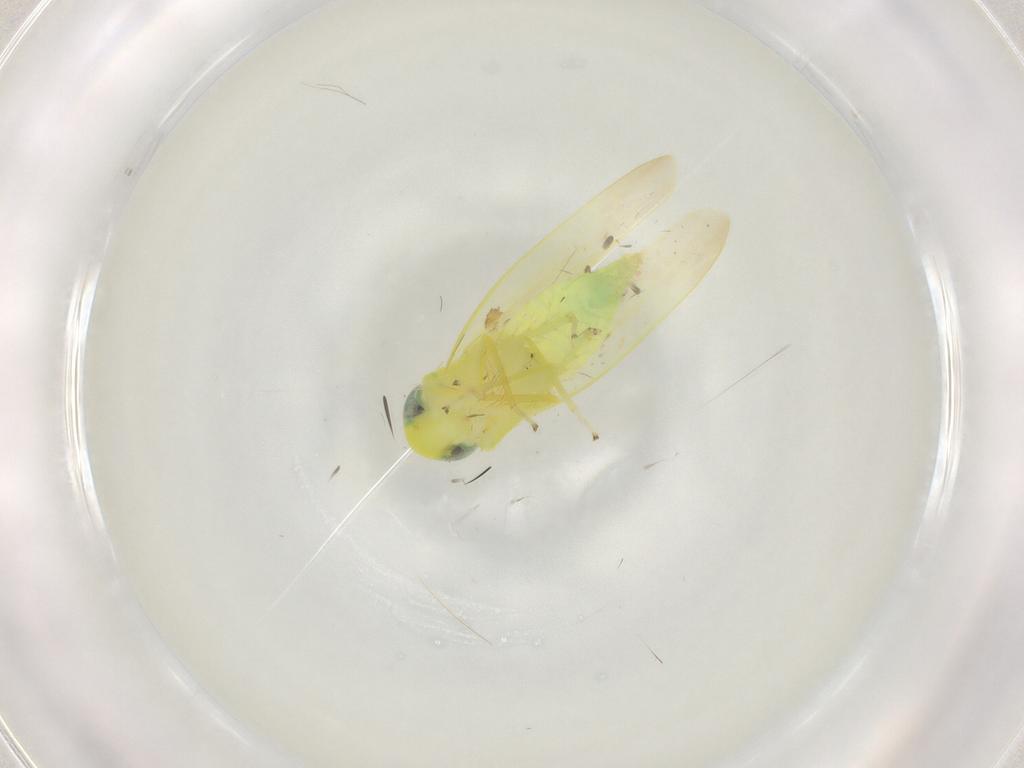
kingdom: Animalia
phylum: Arthropoda
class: Insecta
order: Hemiptera
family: Cicadellidae
